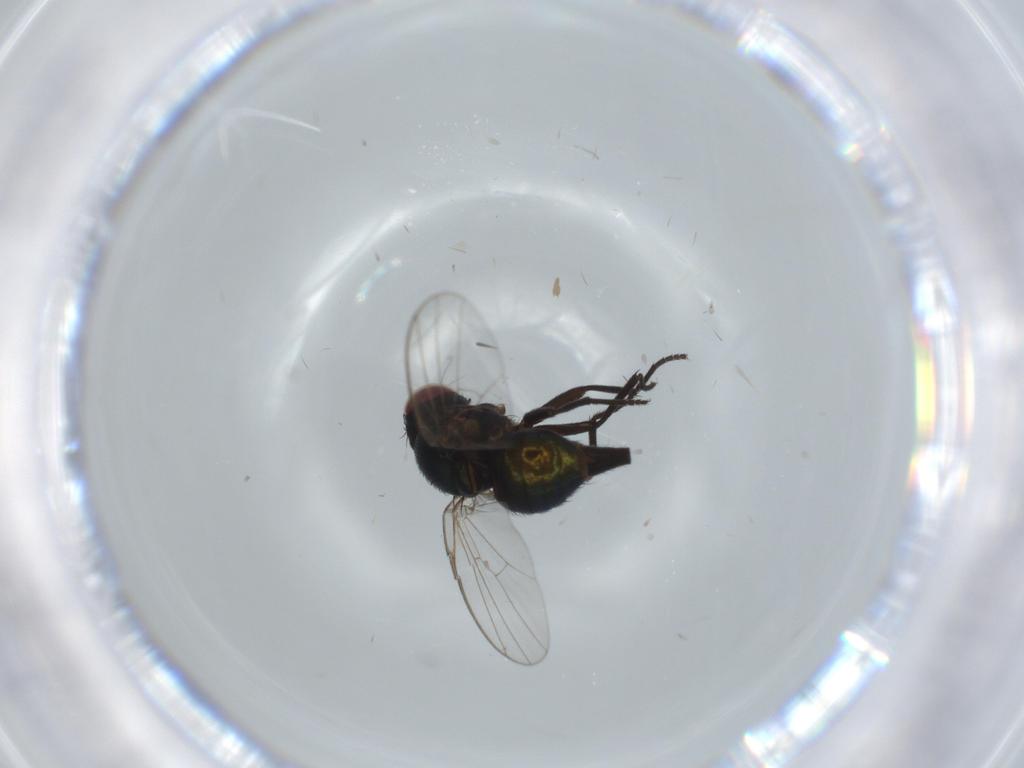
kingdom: Animalia
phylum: Arthropoda
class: Insecta
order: Diptera
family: Agromyzidae
